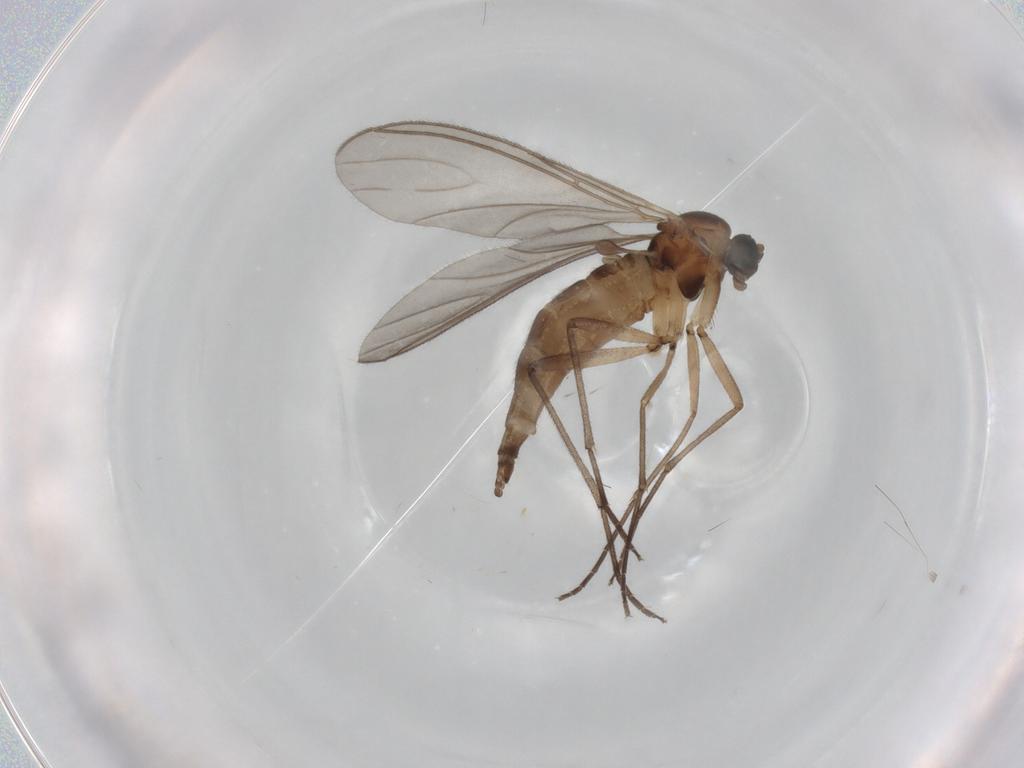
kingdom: Animalia
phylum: Arthropoda
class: Insecta
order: Diptera
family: Sciaridae
